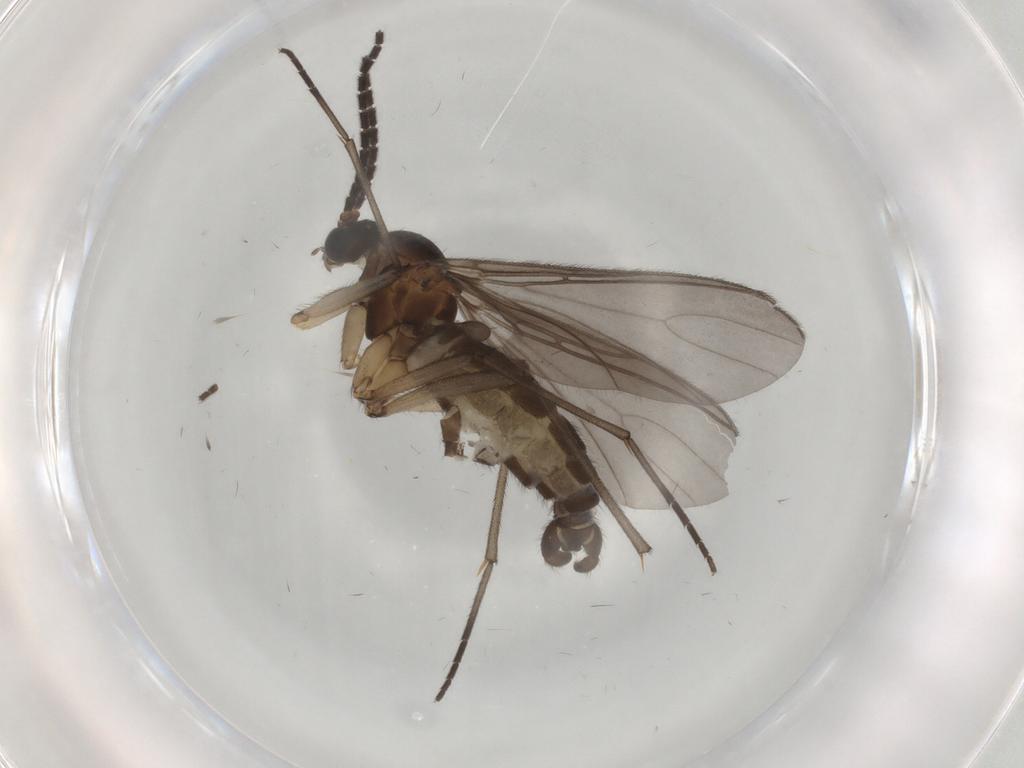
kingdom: Animalia
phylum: Arthropoda
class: Insecta
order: Diptera
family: Sciaridae
